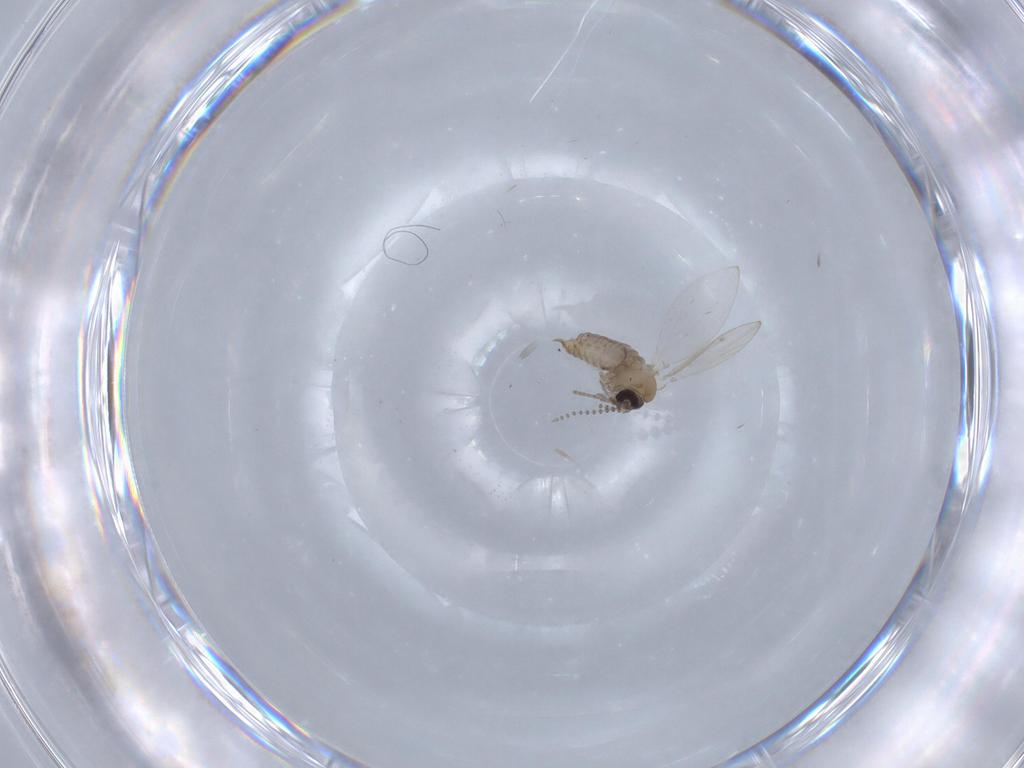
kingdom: Animalia
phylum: Arthropoda
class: Insecta
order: Diptera
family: Psychodidae
